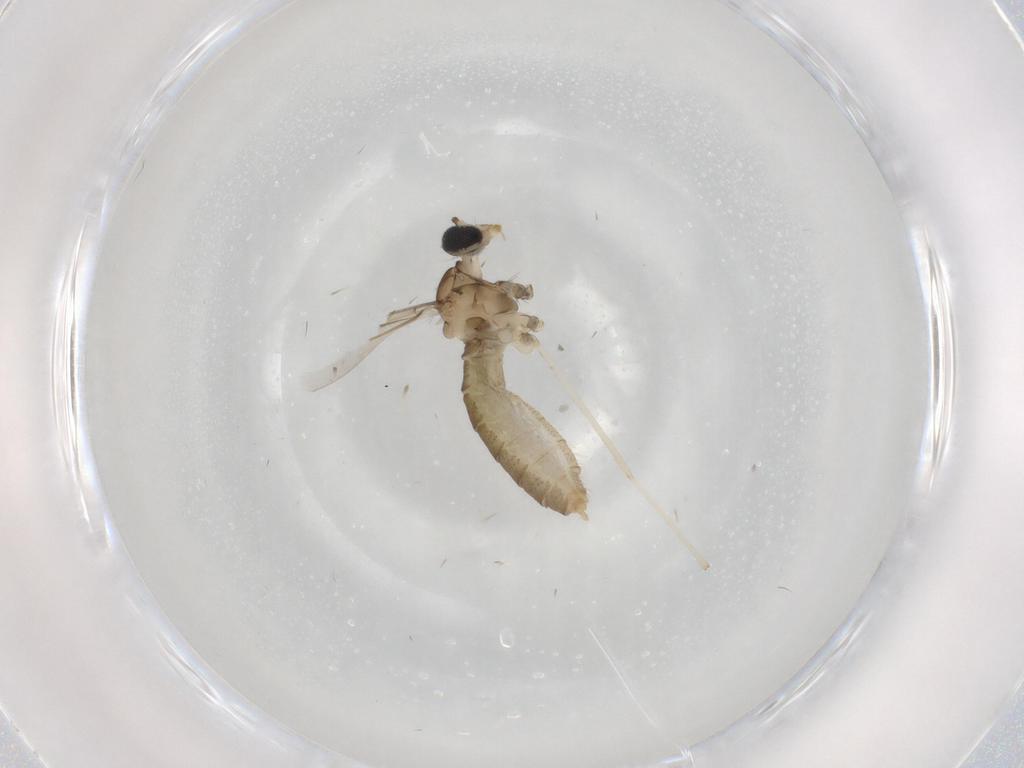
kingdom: Animalia
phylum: Arthropoda
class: Insecta
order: Diptera
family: Cecidomyiidae
